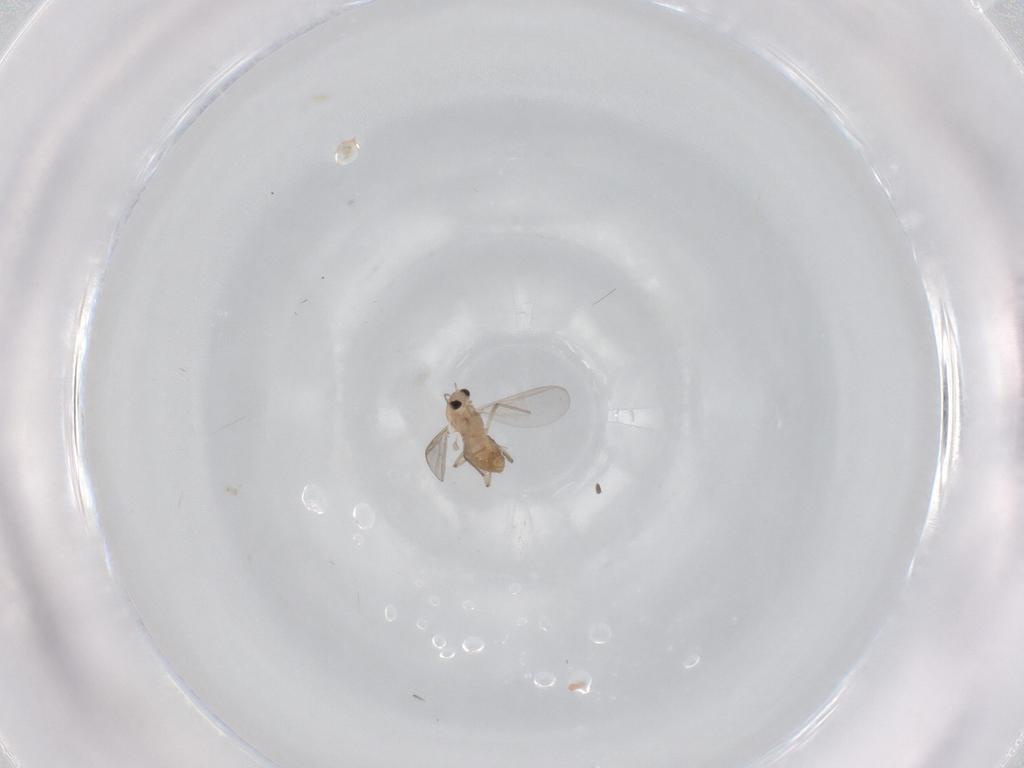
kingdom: Animalia
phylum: Arthropoda
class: Insecta
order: Diptera
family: Chironomidae
